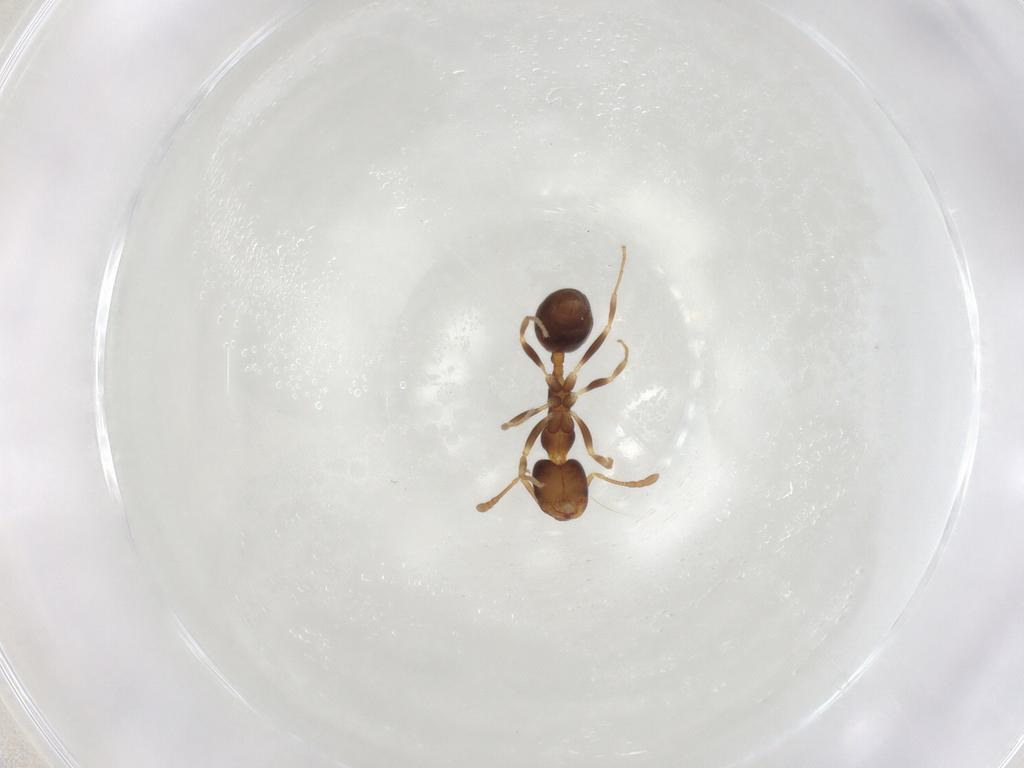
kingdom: Animalia
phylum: Arthropoda
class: Insecta
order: Hymenoptera
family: Formicidae
